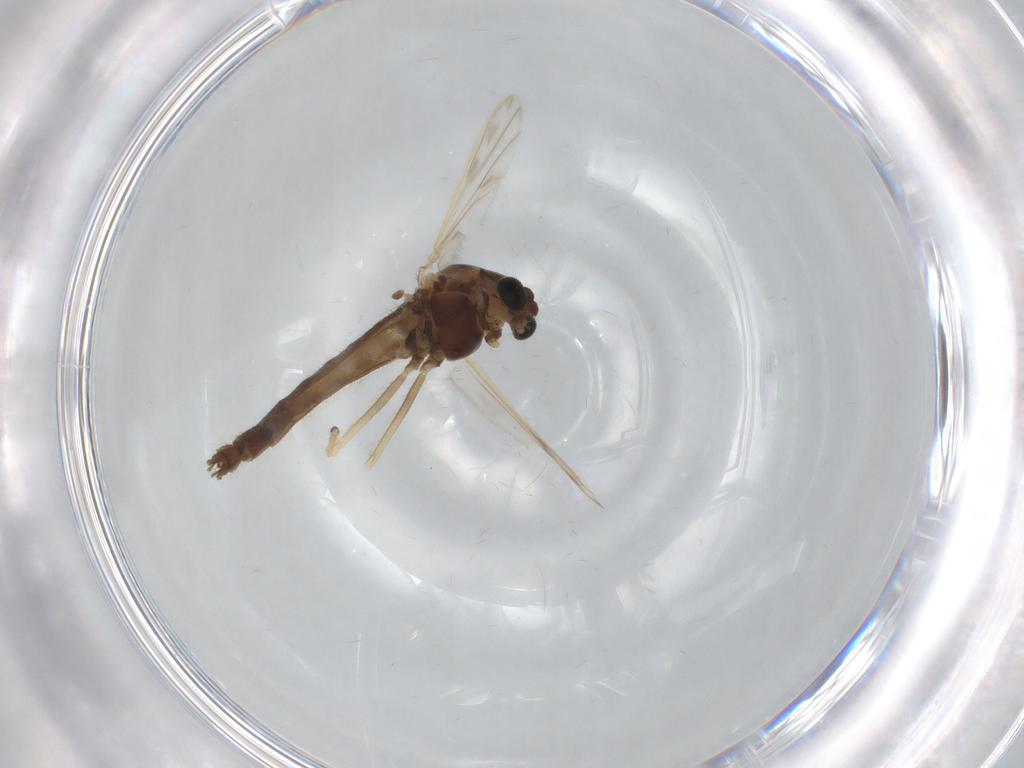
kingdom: Animalia
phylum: Arthropoda
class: Insecta
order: Diptera
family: Chironomidae
